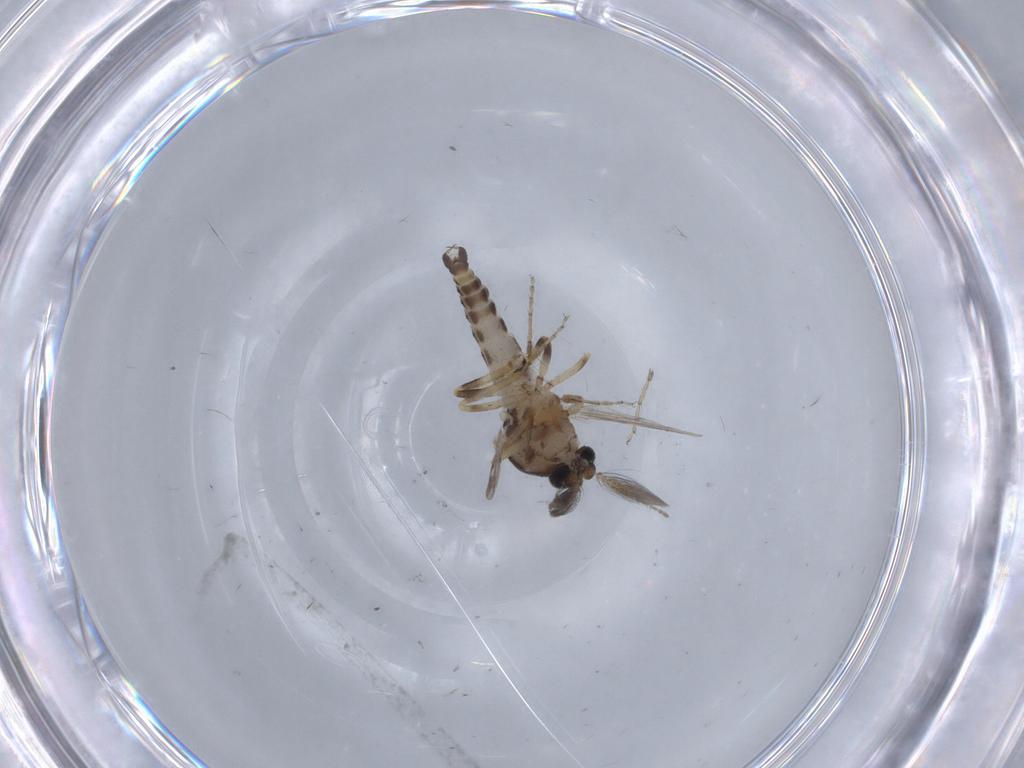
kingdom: Animalia
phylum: Arthropoda
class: Insecta
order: Diptera
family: Ceratopogonidae
